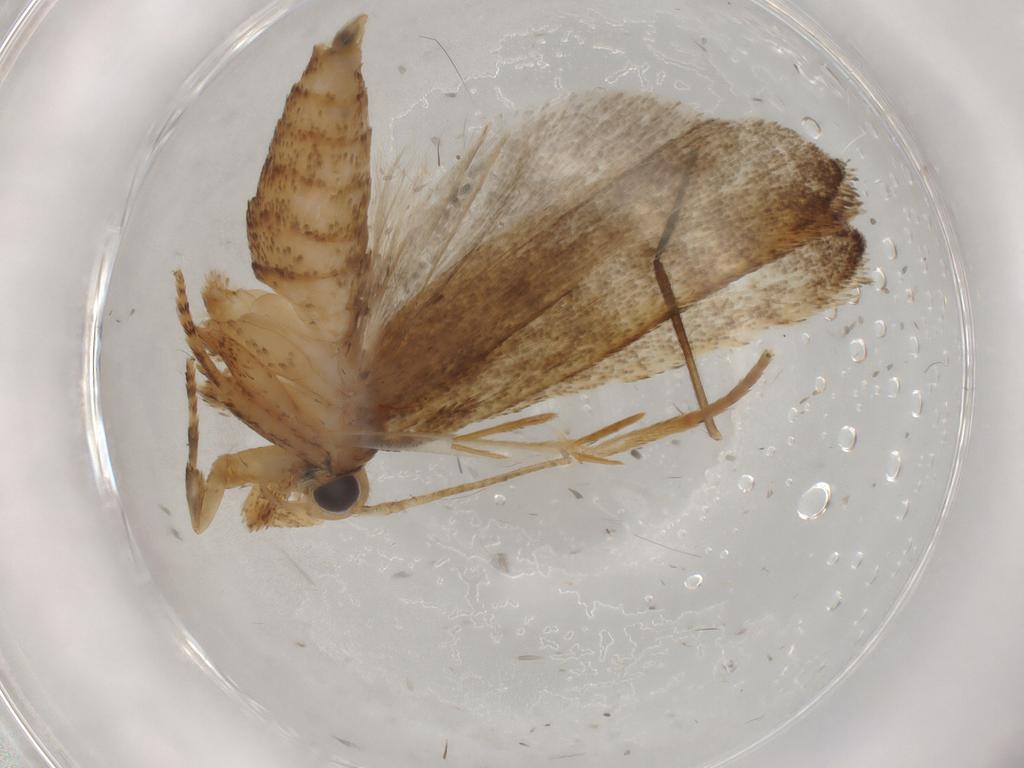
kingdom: Animalia
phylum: Arthropoda
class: Insecta
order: Lepidoptera
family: Autostichidae
